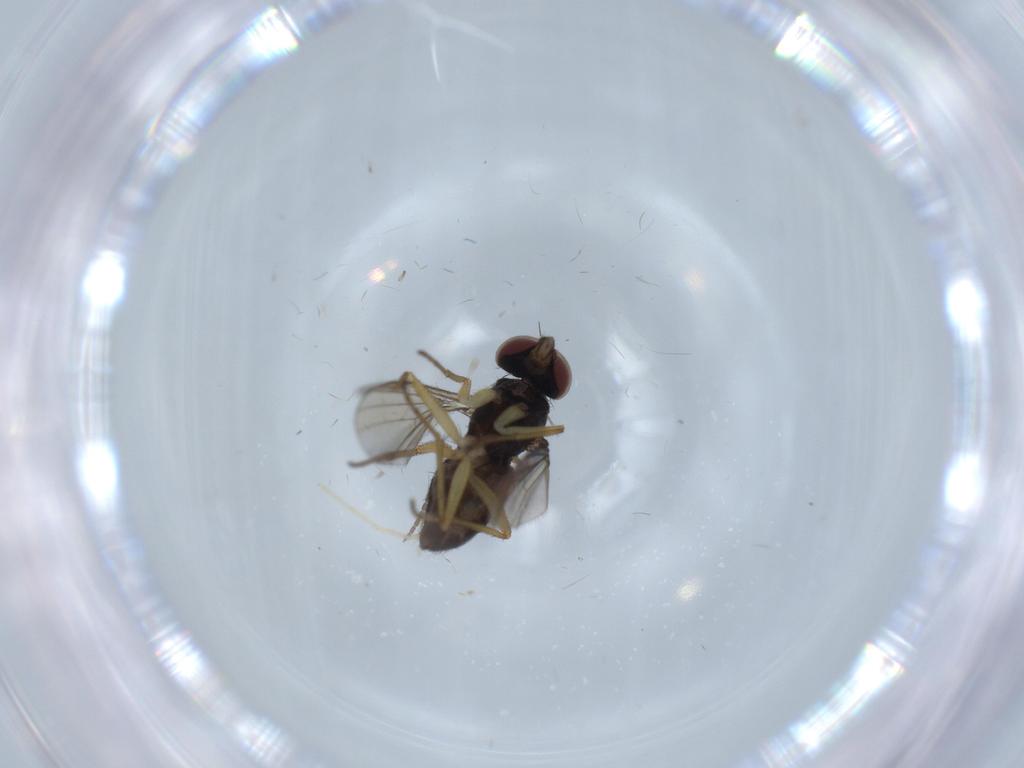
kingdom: Animalia
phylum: Arthropoda
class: Insecta
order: Diptera
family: Dolichopodidae
